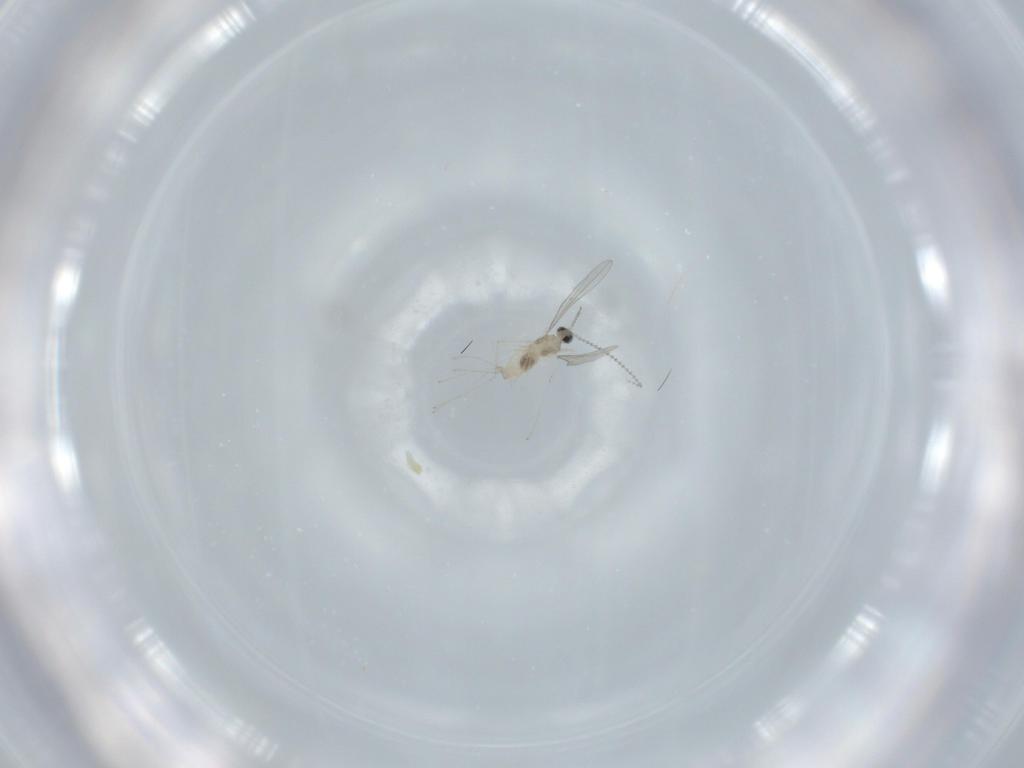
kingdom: Animalia
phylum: Arthropoda
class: Insecta
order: Diptera
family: Cecidomyiidae
